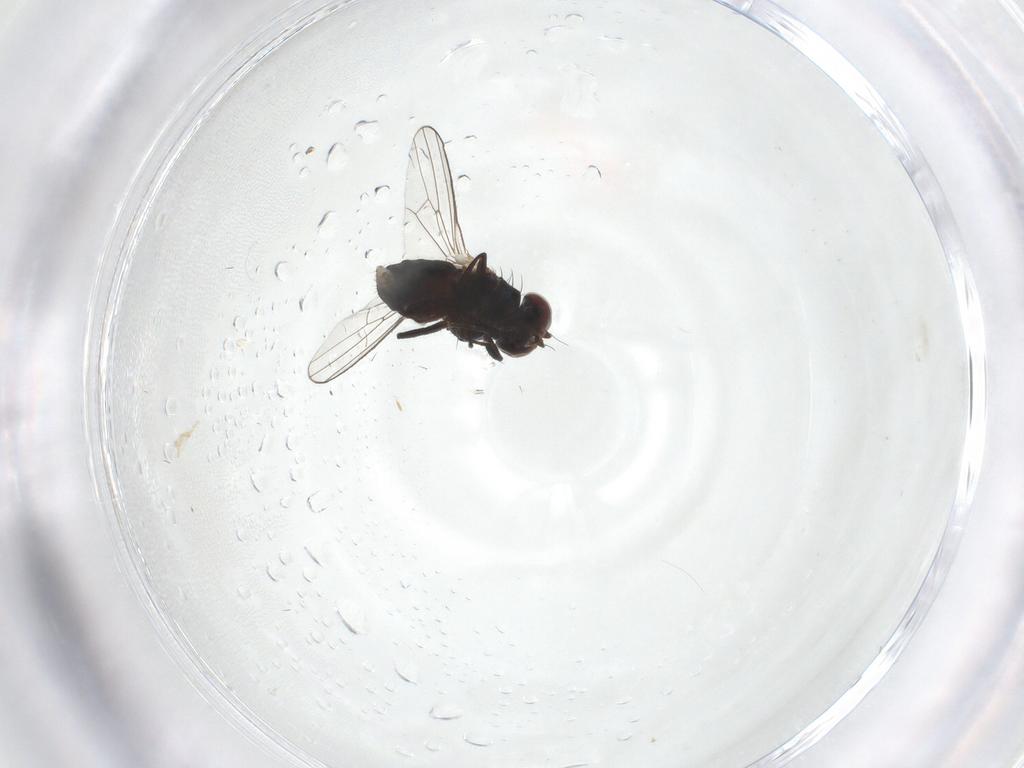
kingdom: Animalia
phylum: Arthropoda
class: Insecta
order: Diptera
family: Carnidae
